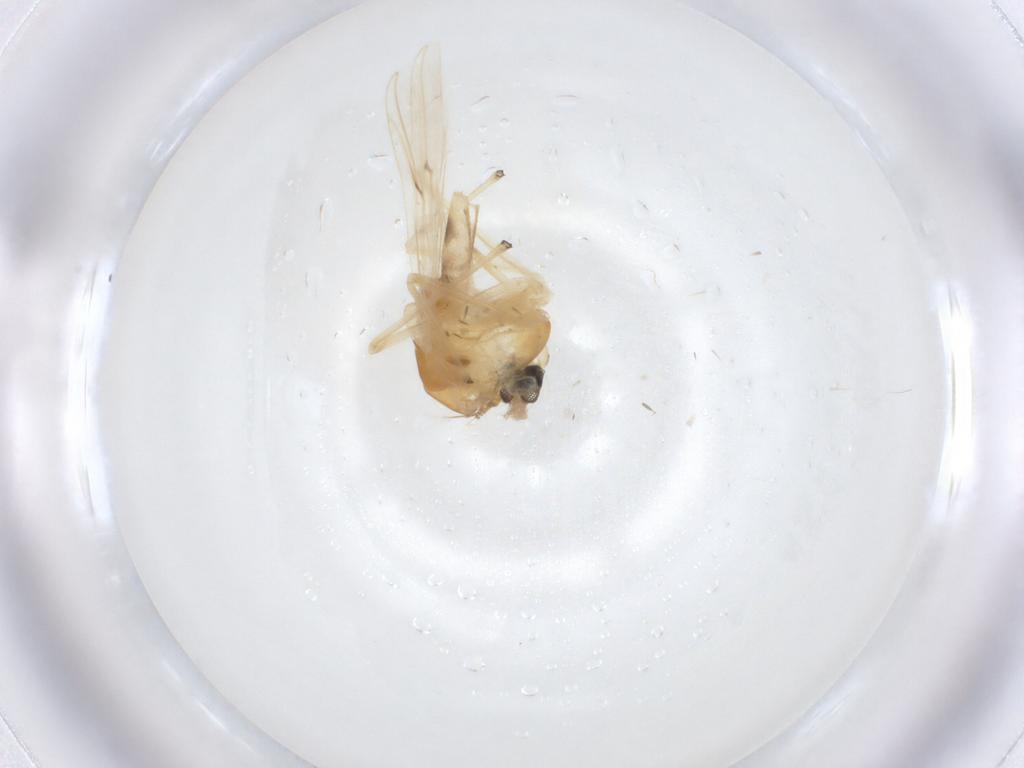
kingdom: Animalia
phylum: Arthropoda
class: Insecta
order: Diptera
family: Chironomidae
